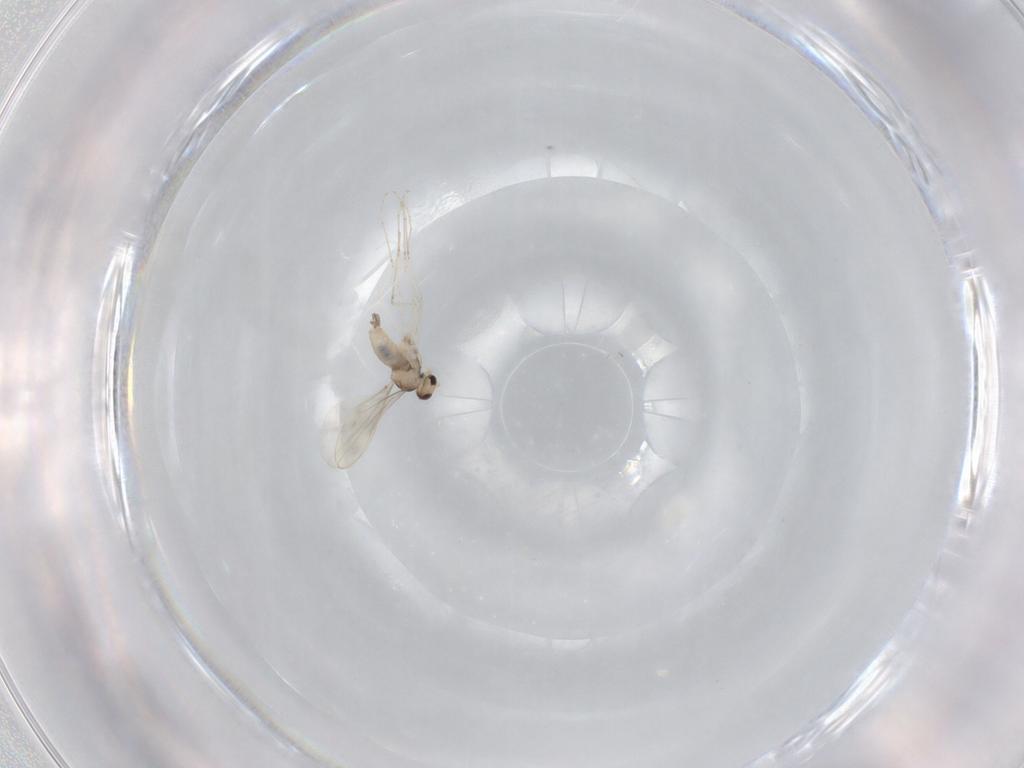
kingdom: Animalia
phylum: Arthropoda
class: Insecta
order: Diptera
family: Cecidomyiidae
